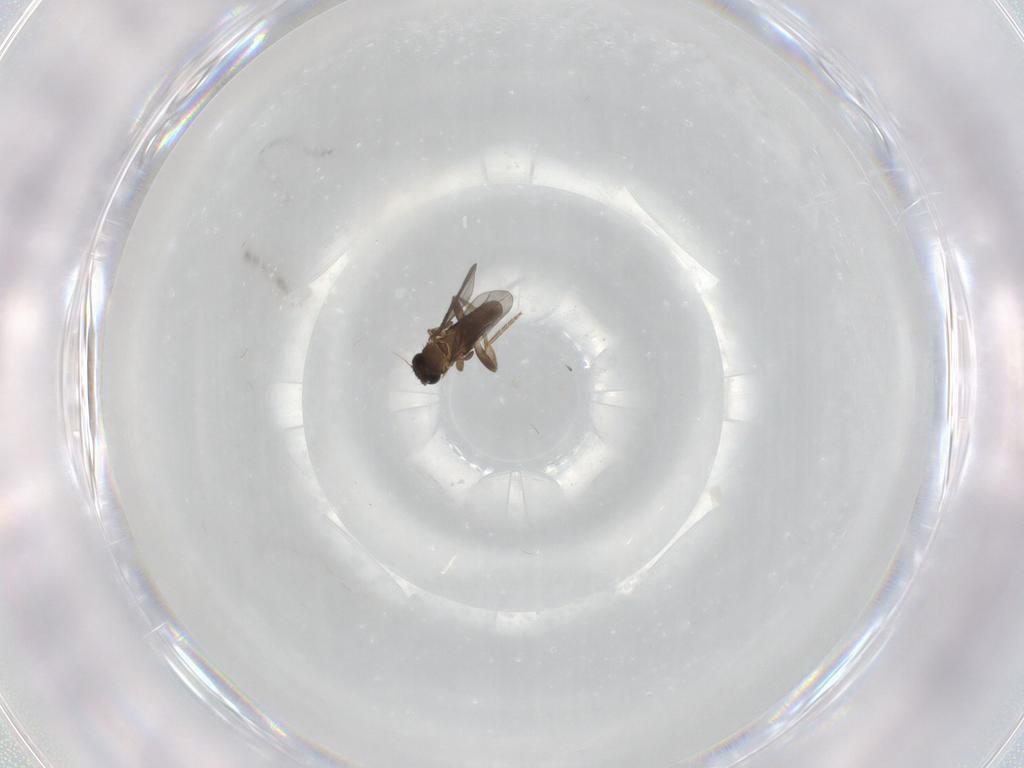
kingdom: Animalia
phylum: Arthropoda
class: Insecta
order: Diptera
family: Phoridae
